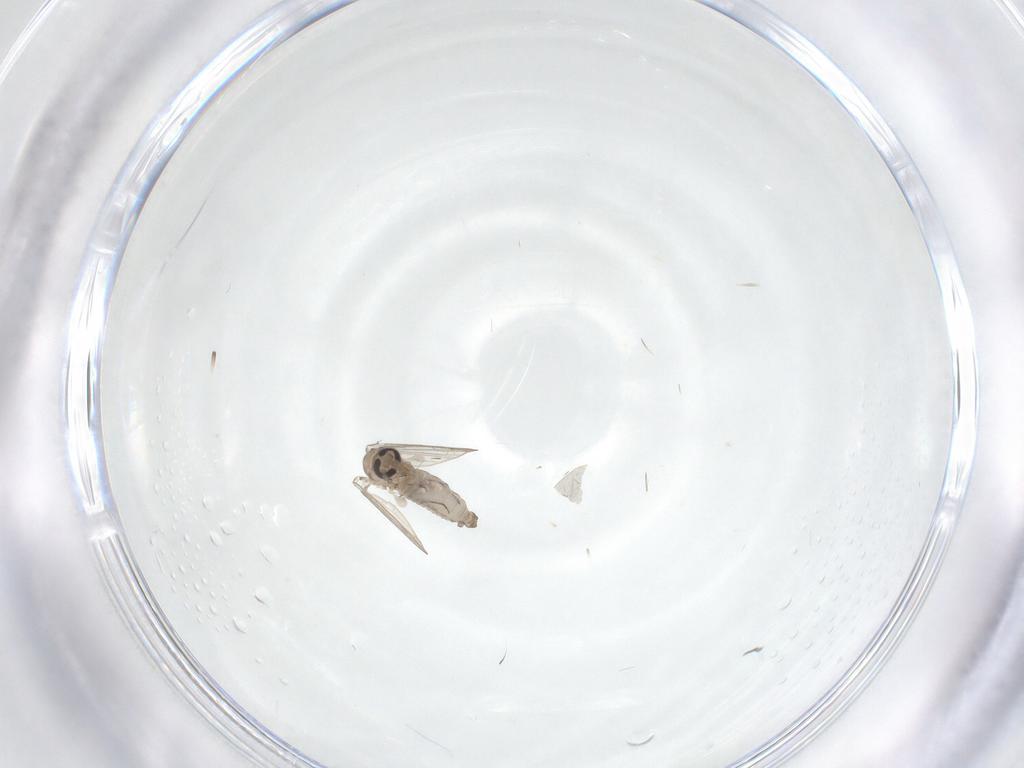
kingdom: Animalia
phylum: Arthropoda
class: Insecta
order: Diptera
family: Psychodidae
